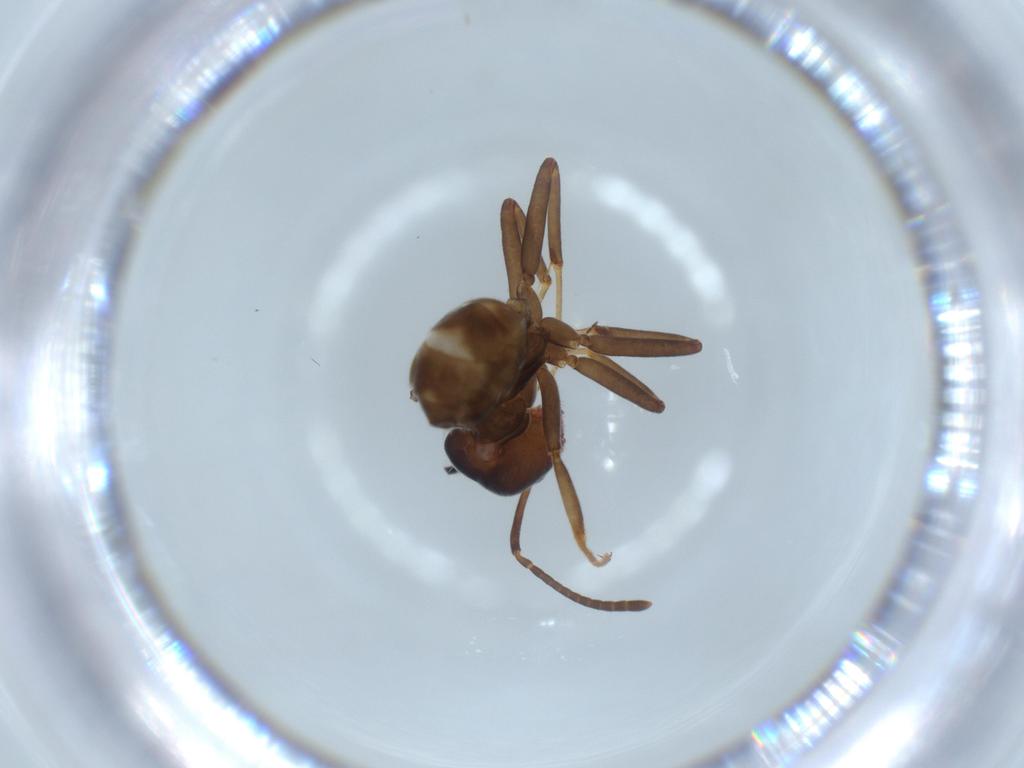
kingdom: Animalia
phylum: Arthropoda
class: Insecta
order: Hymenoptera
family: Formicidae
